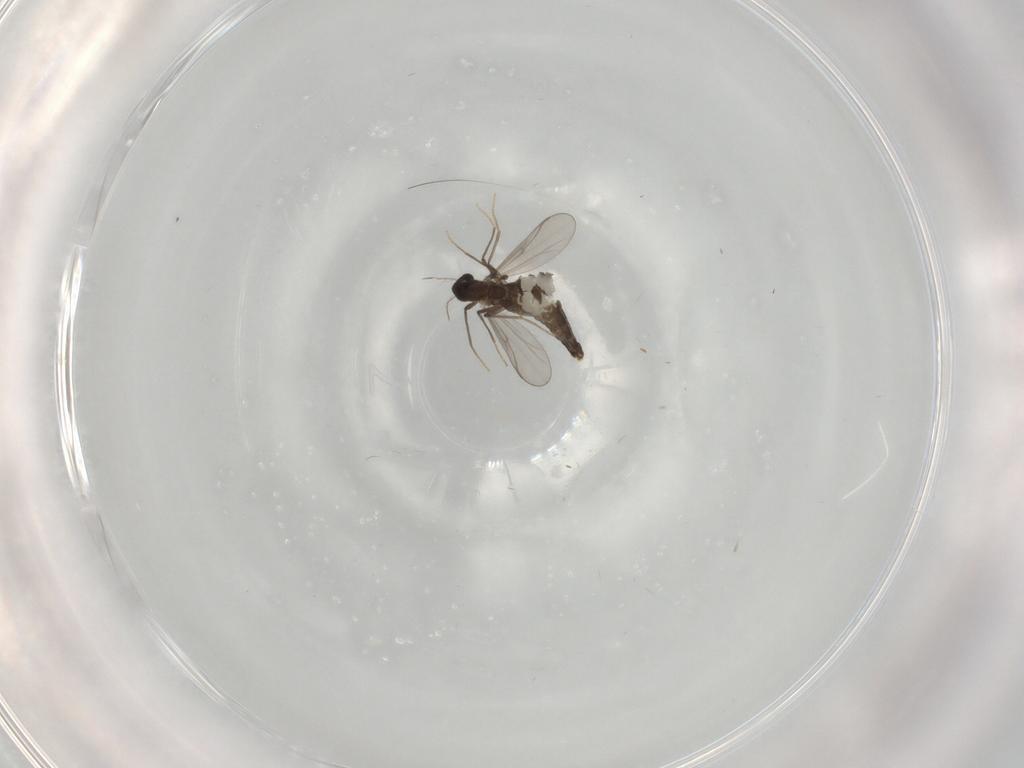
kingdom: Animalia
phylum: Arthropoda
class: Insecta
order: Diptera
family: Chironomidae
